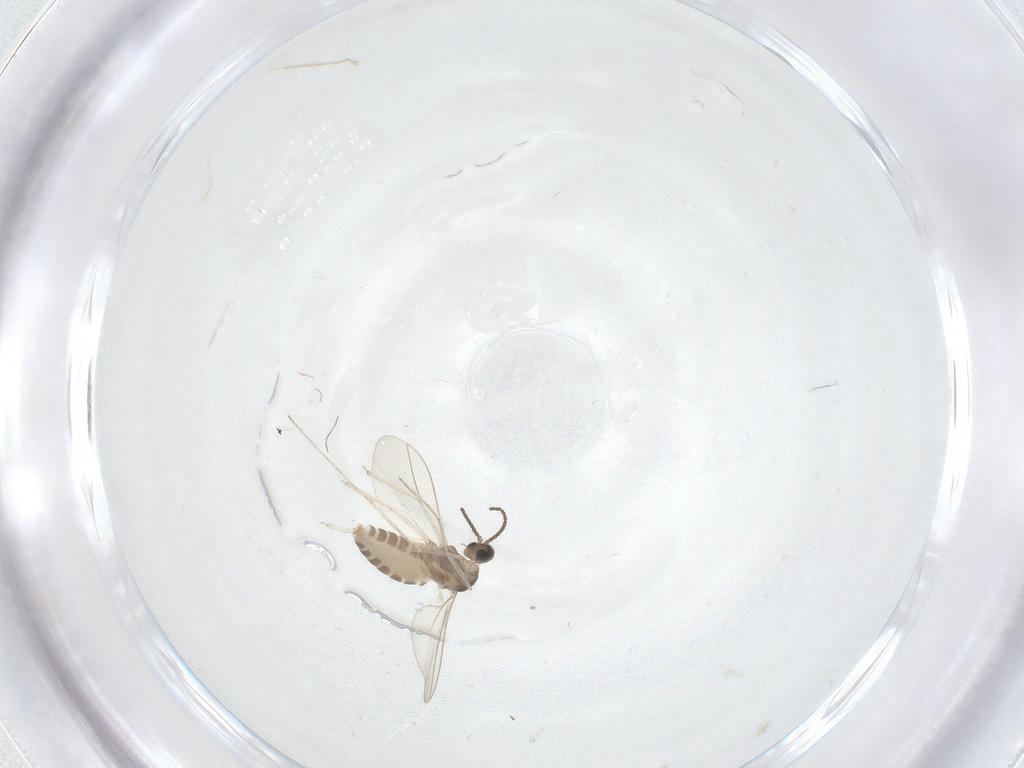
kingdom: Animalia
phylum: Arthropoda
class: Insecta
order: Diptera
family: Cecidomyiidae
